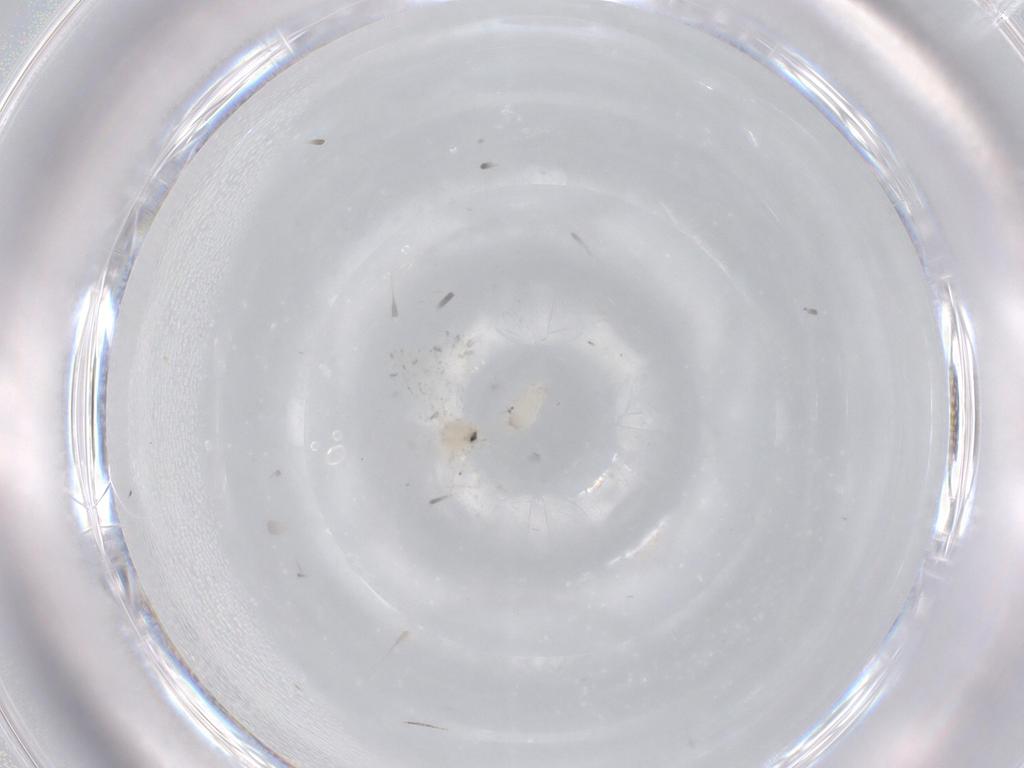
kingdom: Animalia
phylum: Arthropoda
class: Insecta
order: Hemiptera
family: Aleyrodidae
